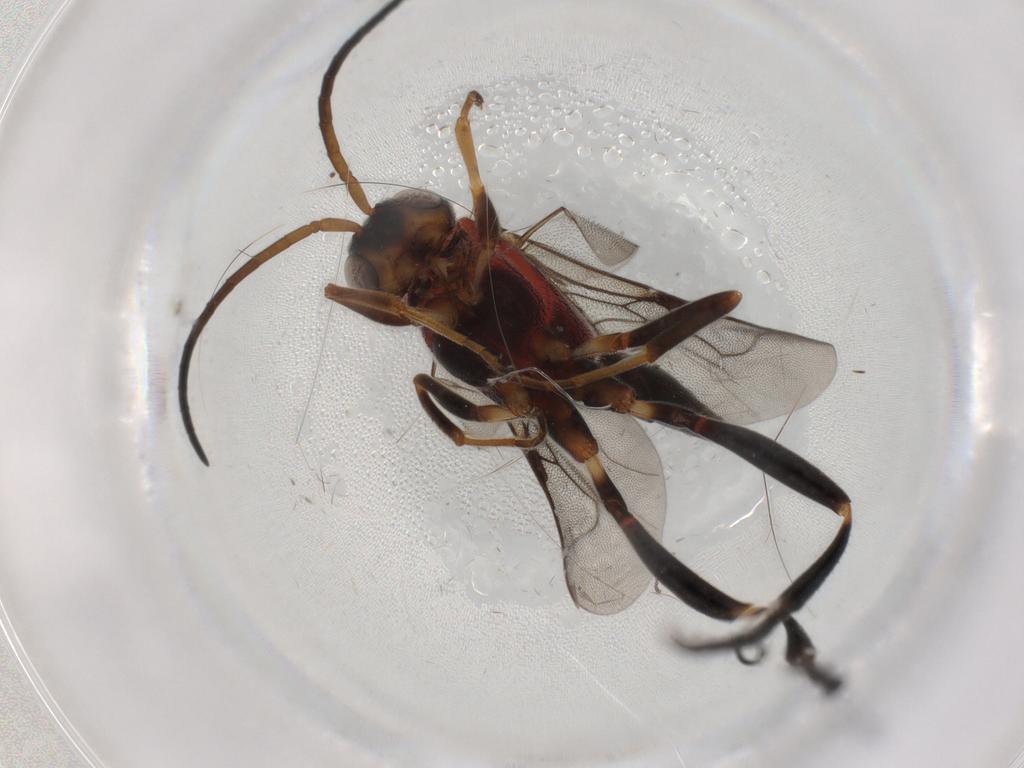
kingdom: Animalia
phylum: Arthropoda
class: Insecta
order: Hymenoptera
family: Evaniidae
